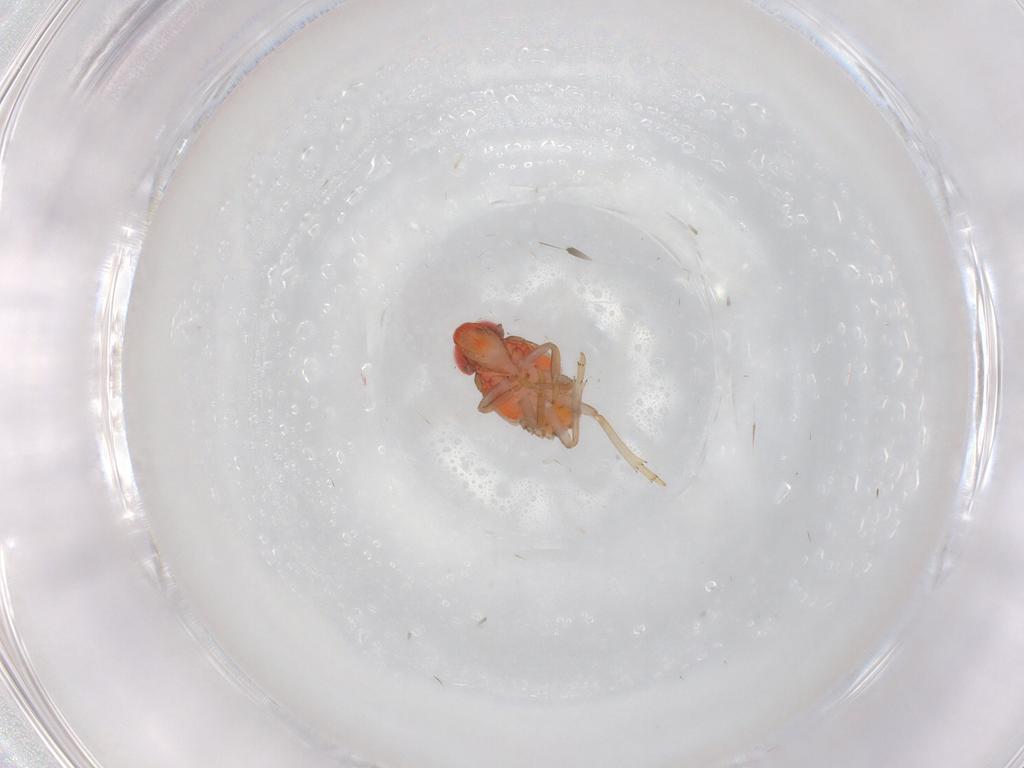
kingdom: Animalia
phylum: Arthropoda
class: Insecta
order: Hemiptera
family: Issidae
